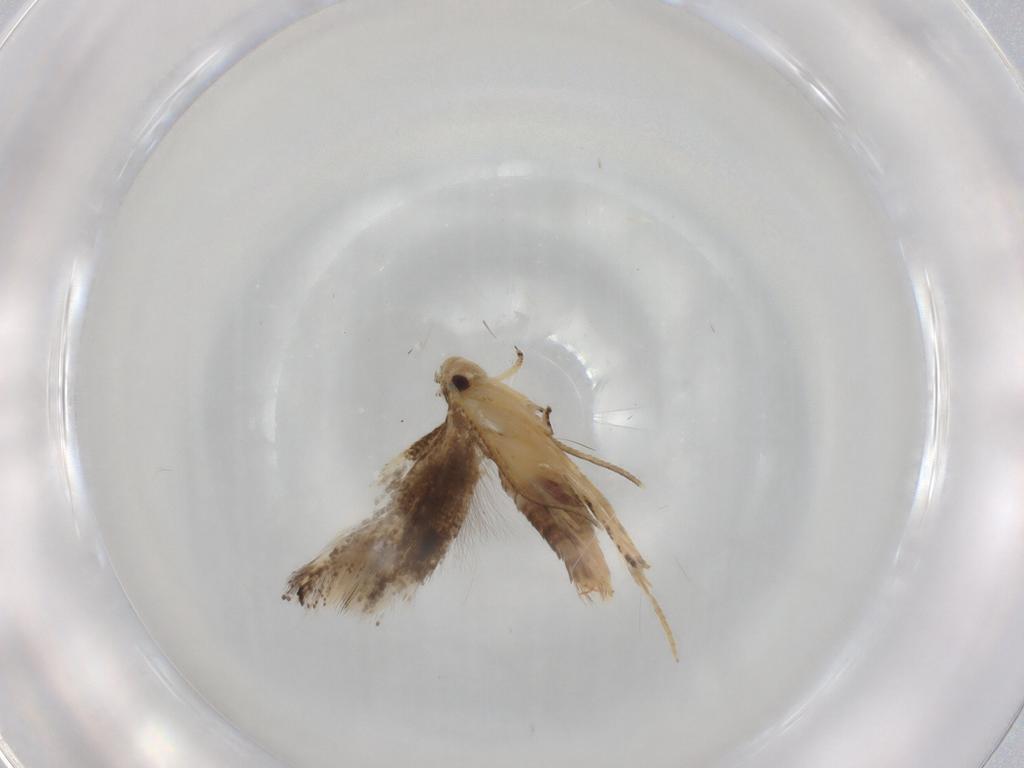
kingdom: Animalia
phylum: Arthropoda
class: Insecta
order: Lepidoptera
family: Elachistidae
